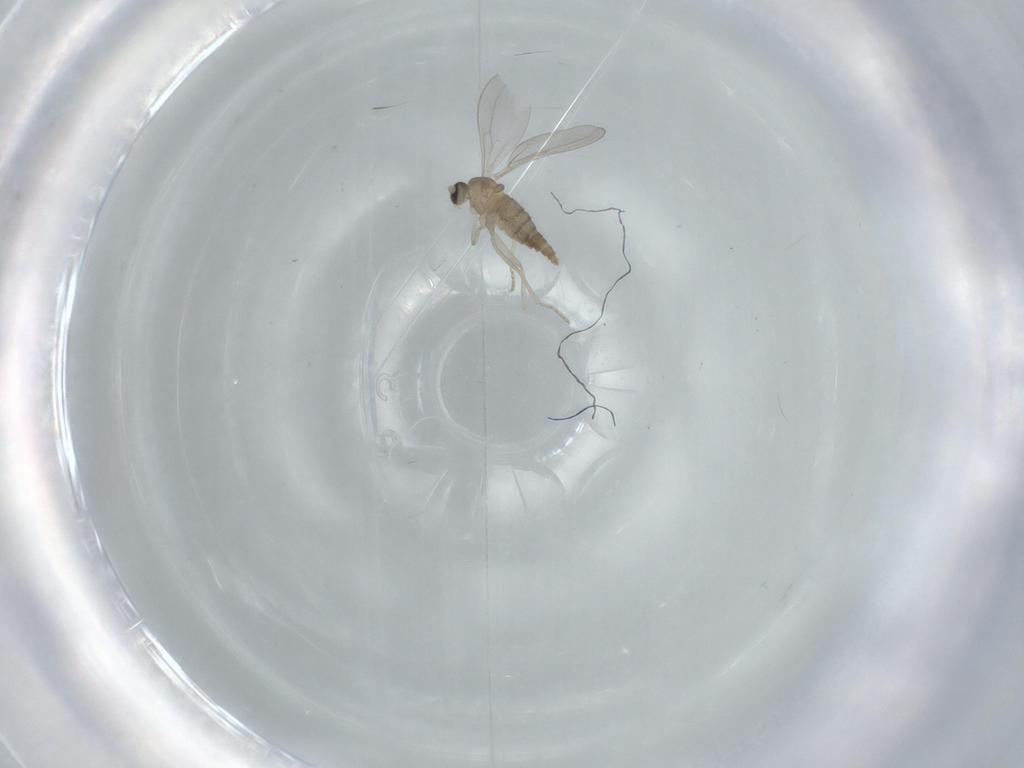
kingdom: Animalia
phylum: Arthropoda
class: Insecta
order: Diptera
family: Cecidomyiidae
